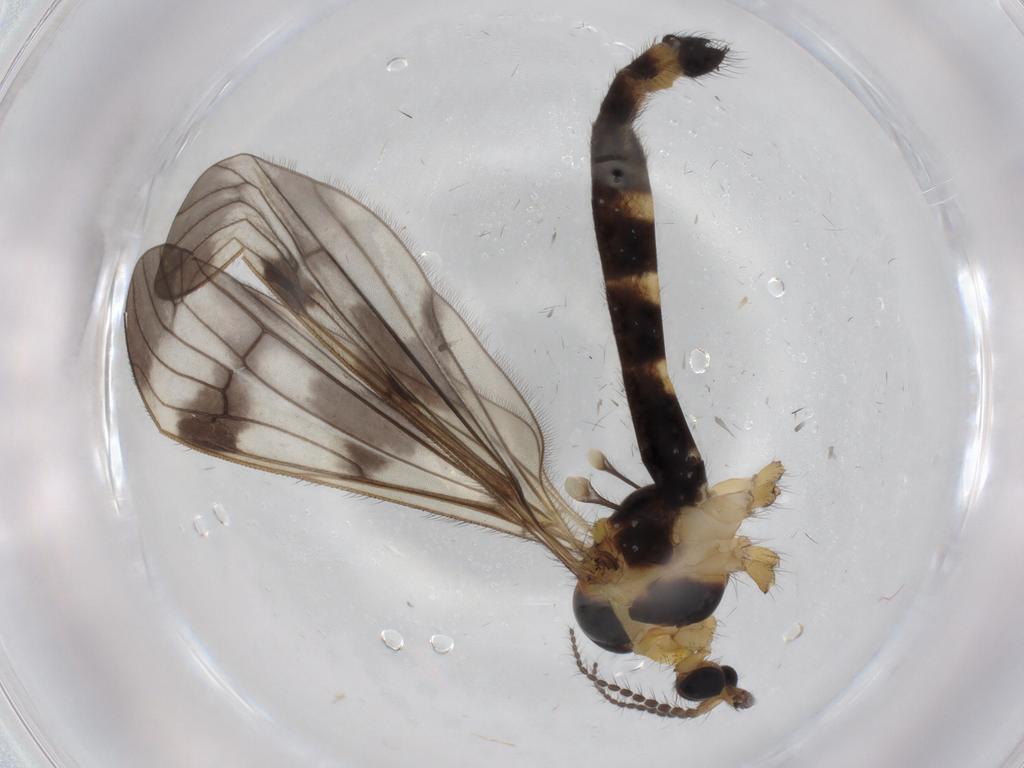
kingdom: Animalia
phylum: Arthropoda
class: Insecta
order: Diptera
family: Limoniidae
